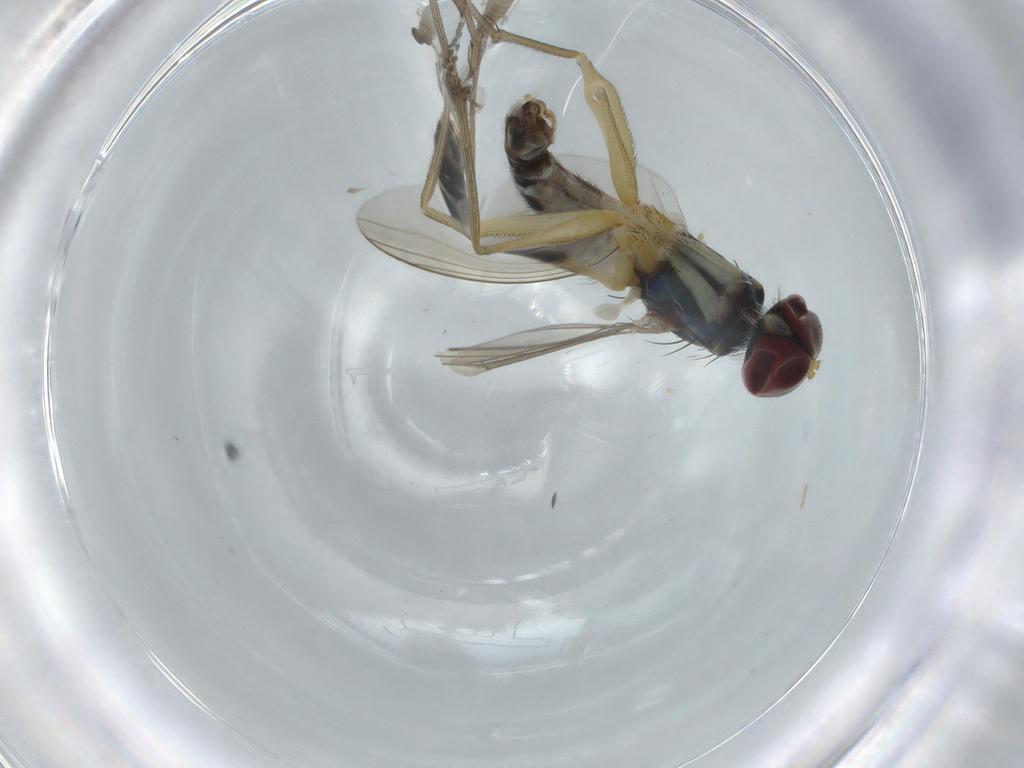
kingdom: Animalia
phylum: Arthropoda
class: Insecta
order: Diptera
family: Dolichopodidae
